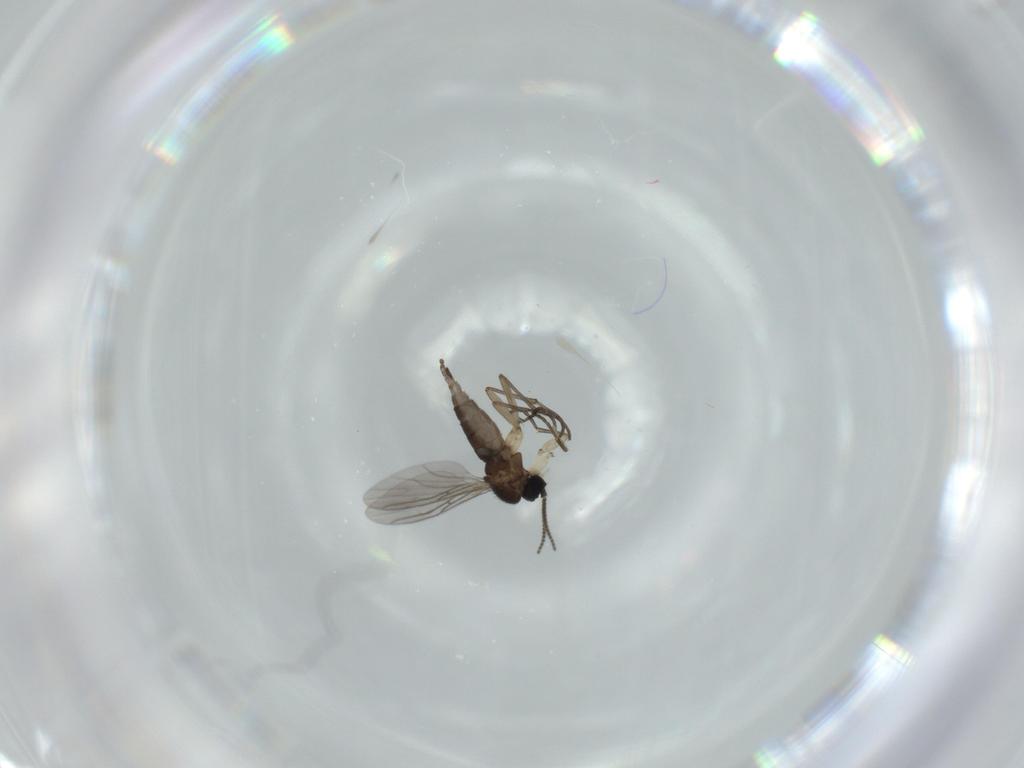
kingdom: Animalia
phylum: Arthropoda
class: Insecta
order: Diptera
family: Sciaridae
